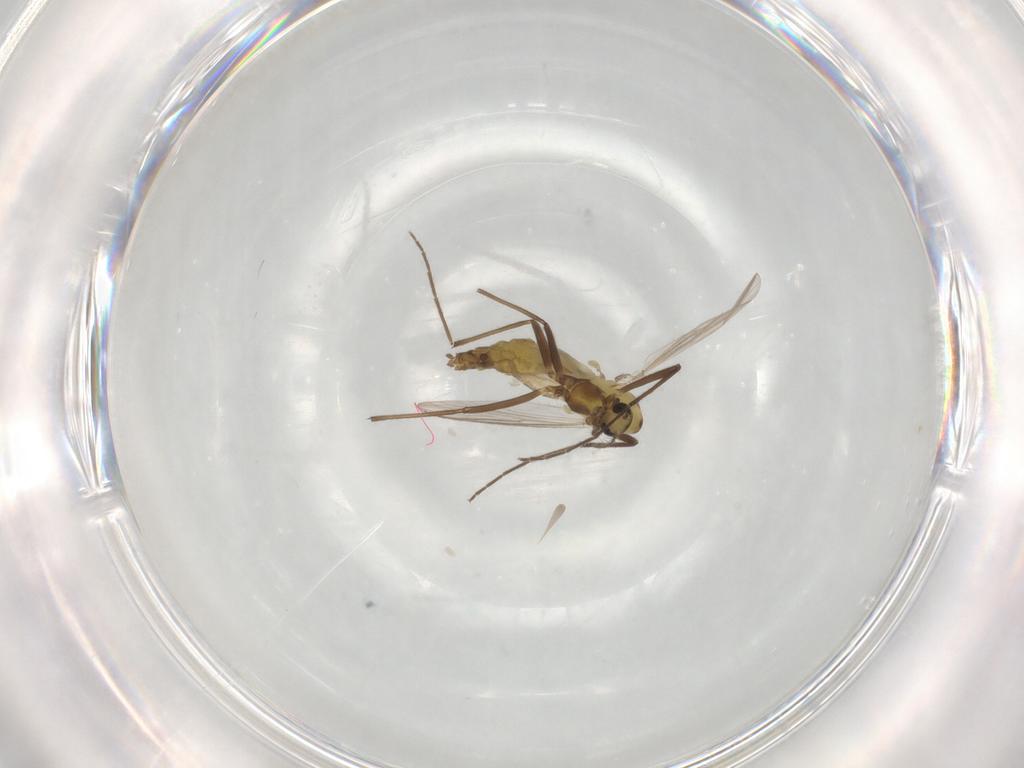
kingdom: Animalia
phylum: Arthropoda
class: Insecta
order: Diptera
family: Chironomidae
